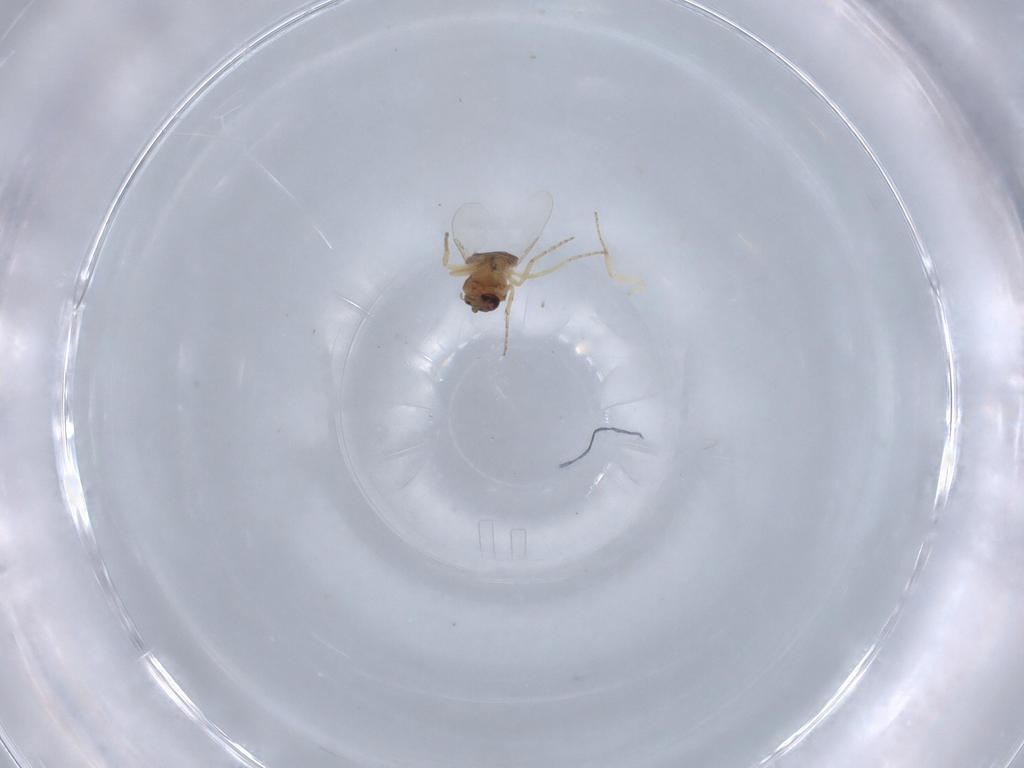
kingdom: Animalia
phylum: Arthropoda
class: Insecta
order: Diptera
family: Ceratopogonidae
